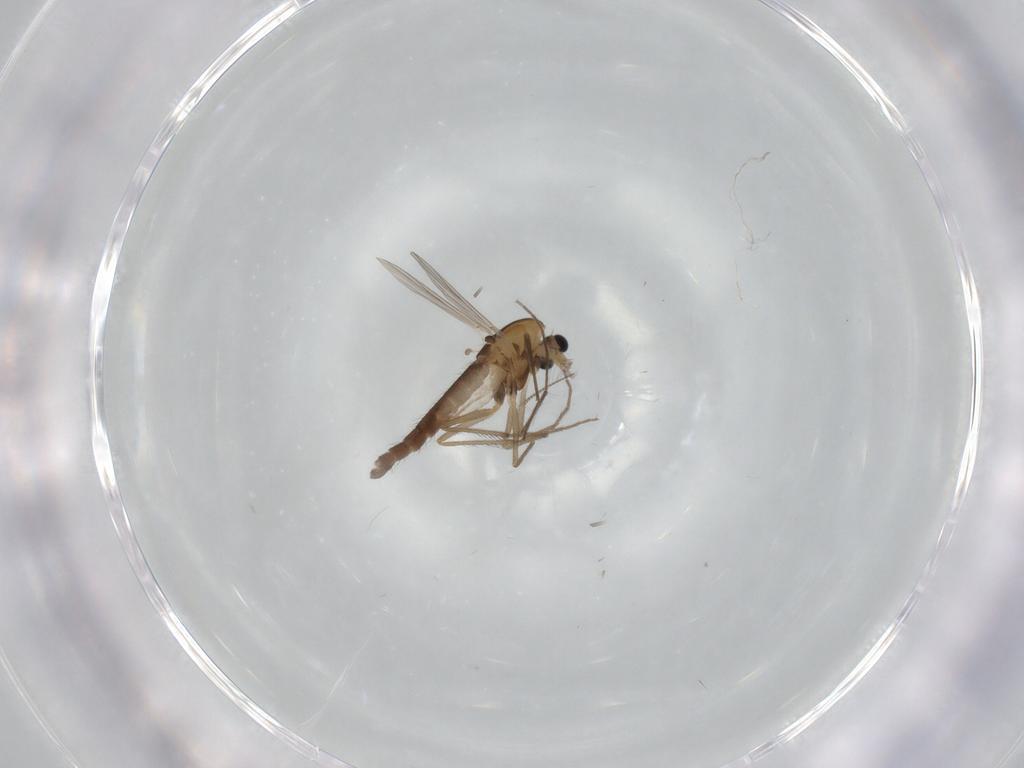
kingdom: Animalia
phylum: Arthropoda
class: Insecta
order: Diptera
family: Chironomidae
